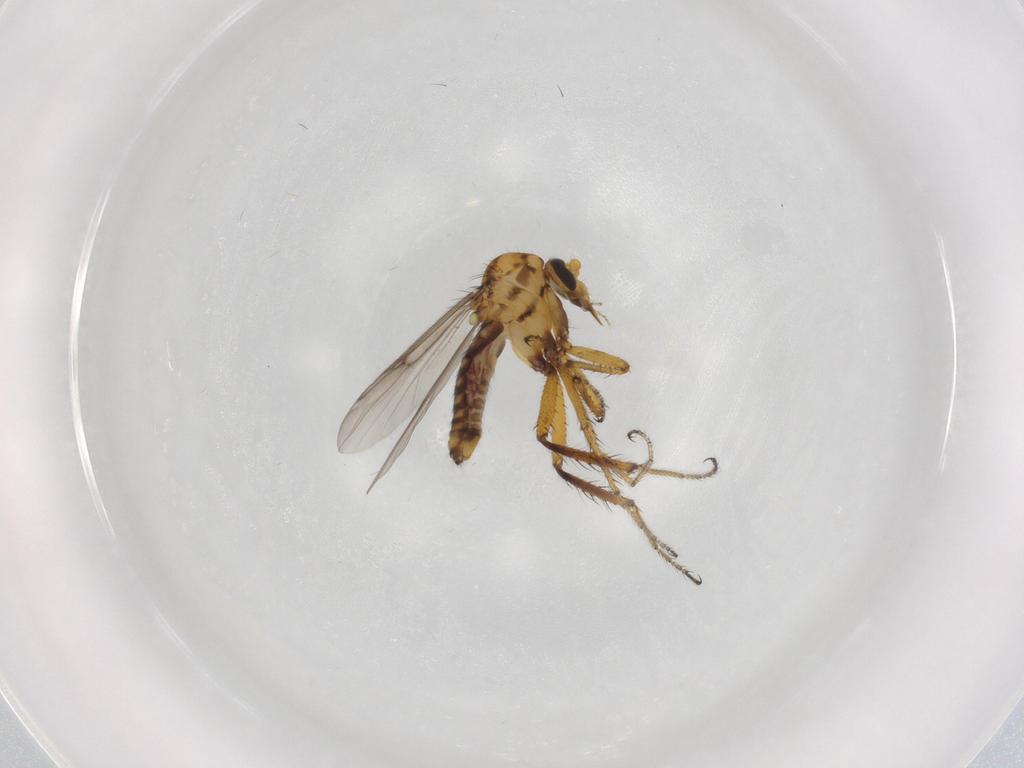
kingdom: Animalia
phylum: Arthropoda
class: Insecta
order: Diptera
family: Ceratopogonidae
